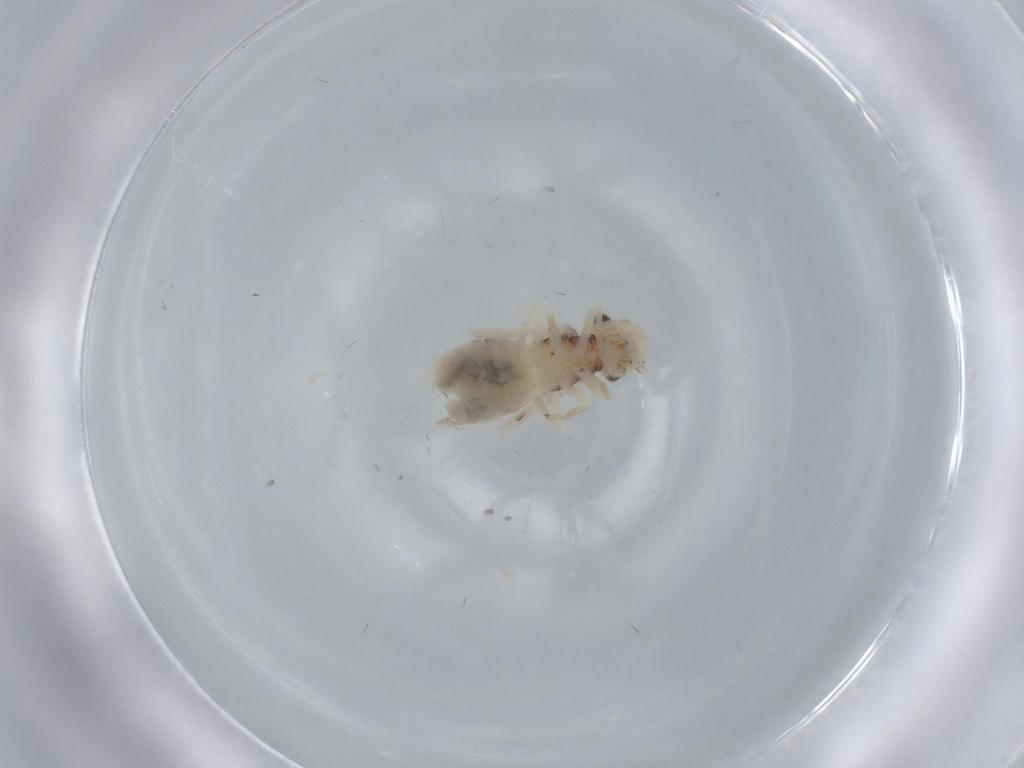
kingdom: Animalia
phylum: Arthropoda
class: Insecta
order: Psocodea
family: Caeciliusidae
